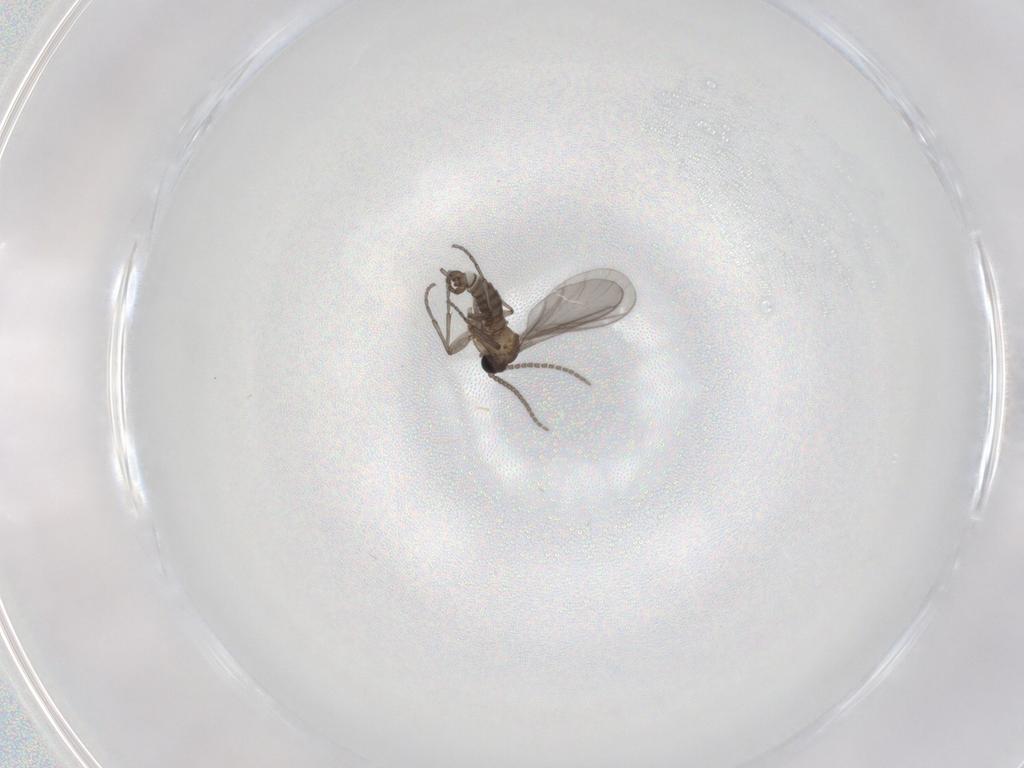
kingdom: Animalia
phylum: Arthropoda
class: Insecta
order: Diptera
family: Sciaridae
